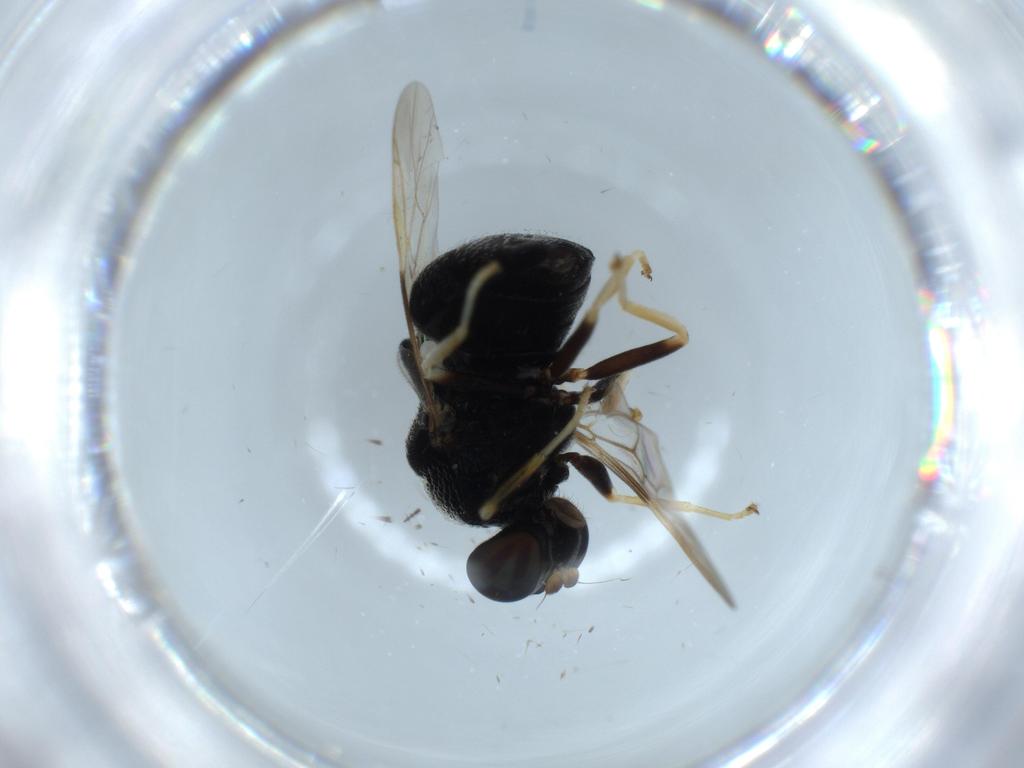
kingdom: Animalia
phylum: Arthropoda
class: Insecta
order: Diptera
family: Stratiomyidae
